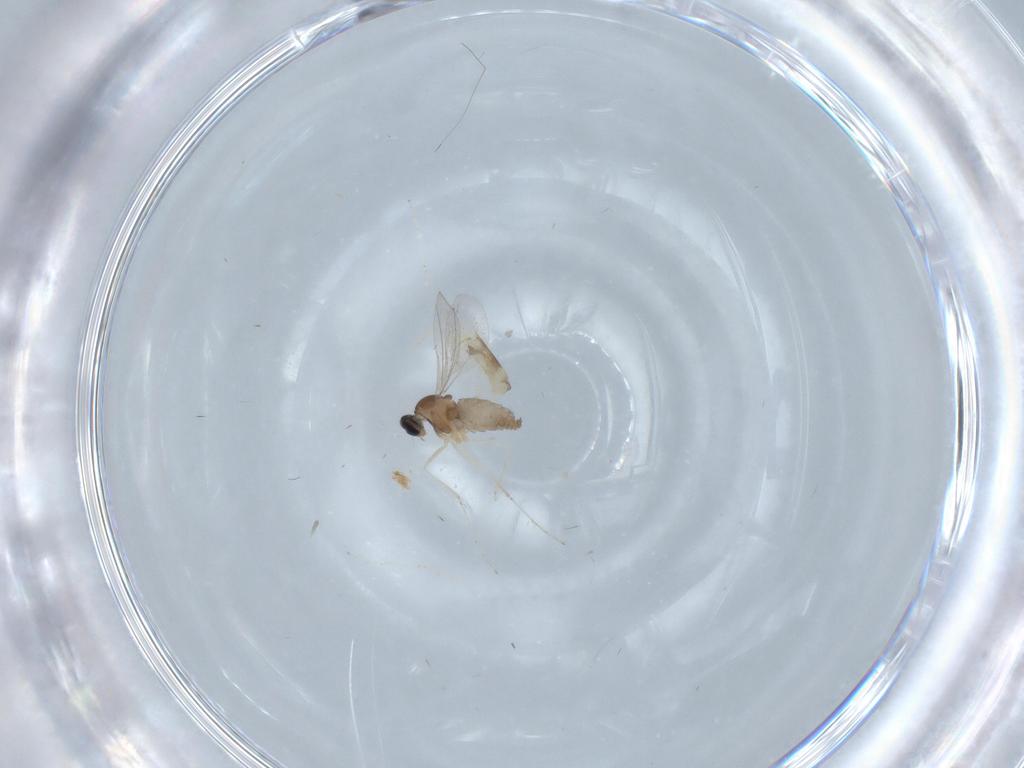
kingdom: Animalia
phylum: Arthropoda
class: Insecta
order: Diptera
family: Cecidomyiidae
